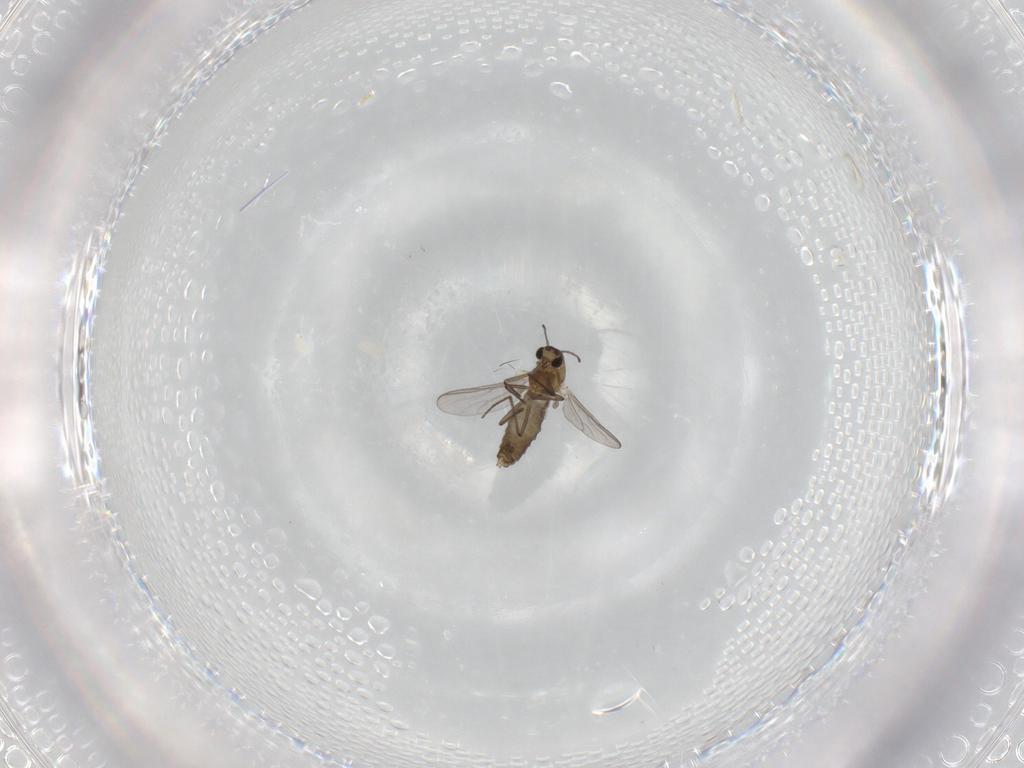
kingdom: Animalia
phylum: Arthropoda
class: Insecta
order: Diptera
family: Chironomidae
